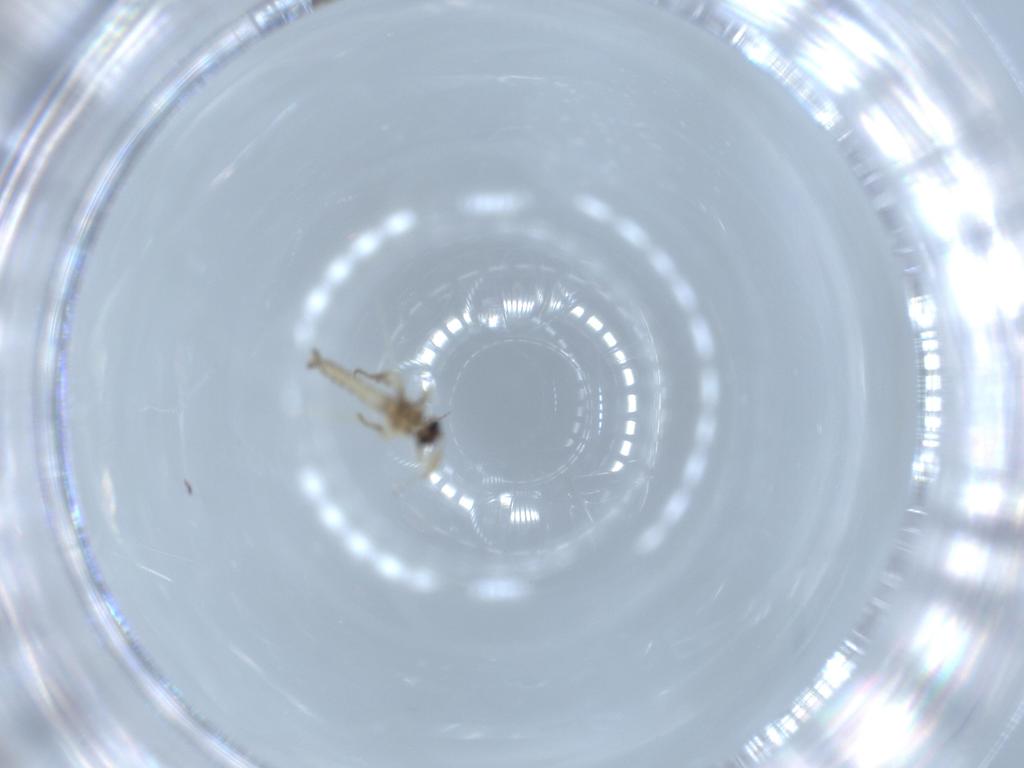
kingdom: Animalia
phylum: Arthropoda
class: Insecta
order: Diptera
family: Ceratopogonidae
